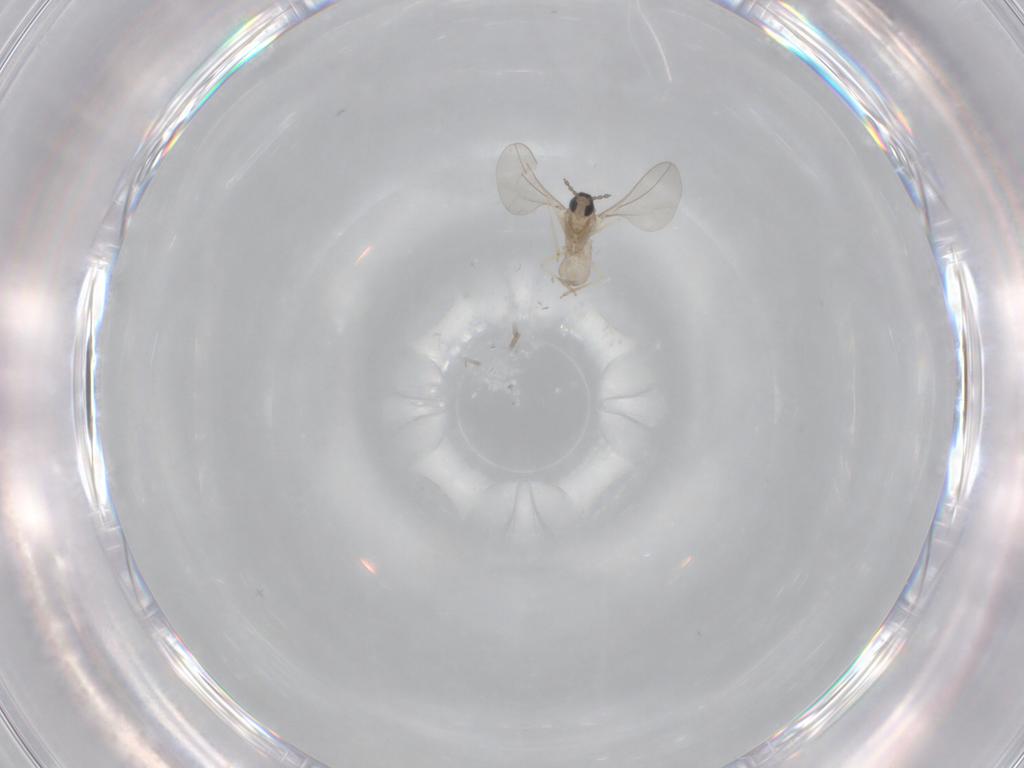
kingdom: Animalia
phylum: Arthropoda
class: Insecta
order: Diptera
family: Cecidomyiidae
